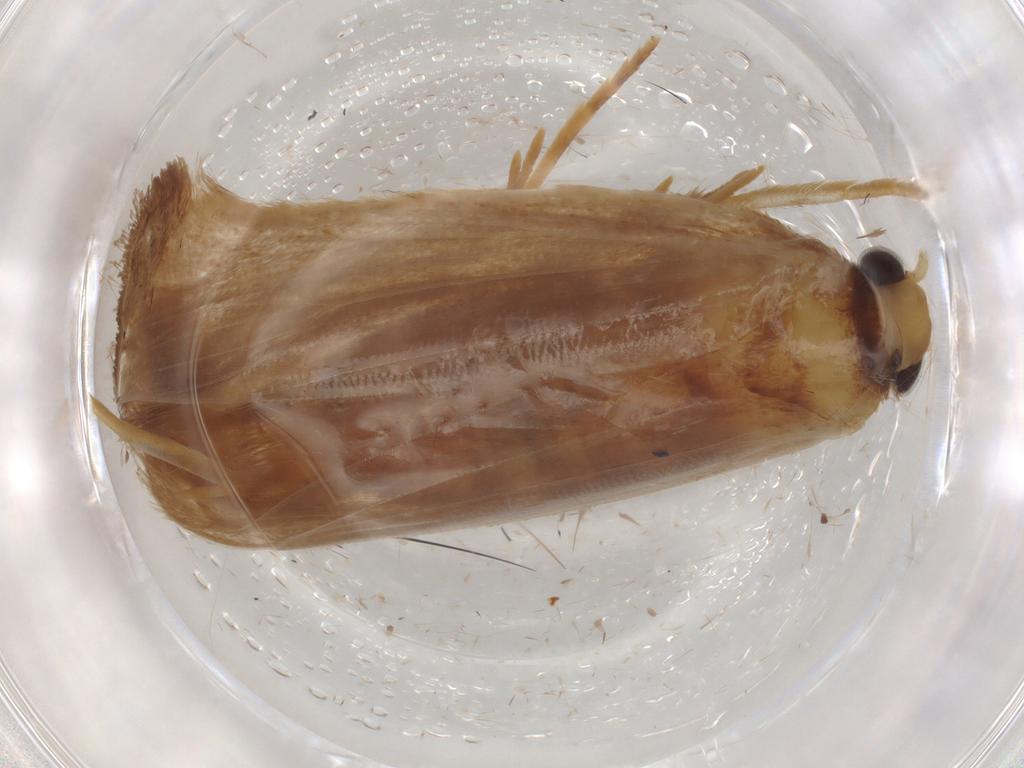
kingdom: Animalia
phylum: Arthropoda
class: Insecta
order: Lepidoptera
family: Lecithoceridae
